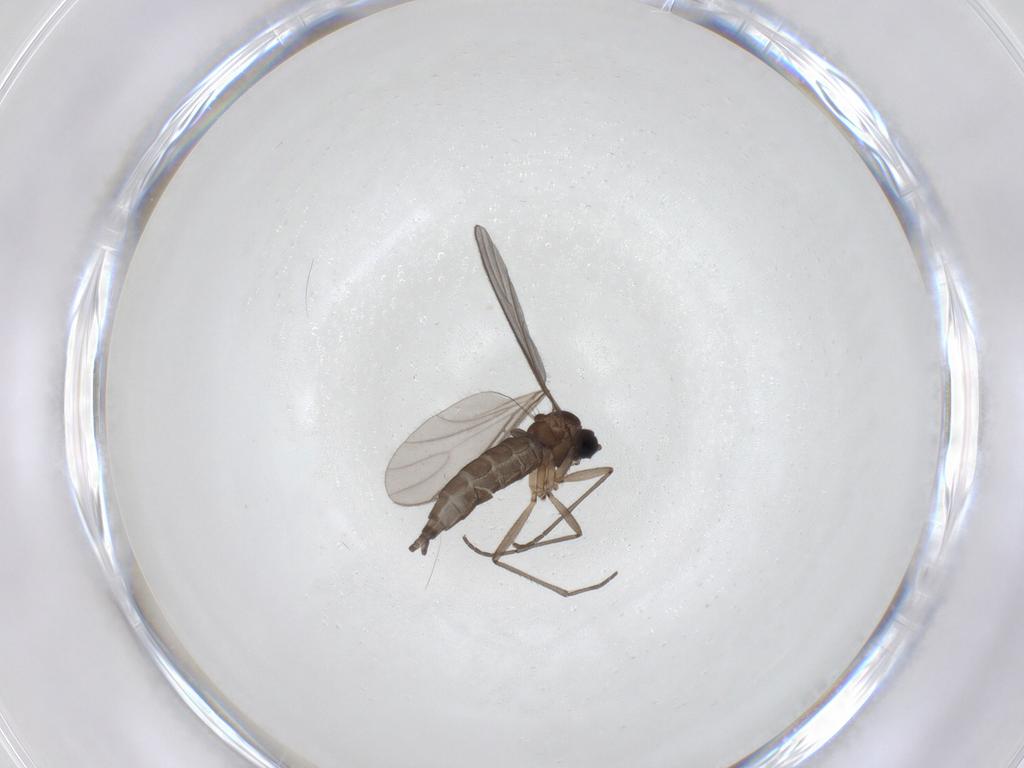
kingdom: Animalia
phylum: Arthropoda
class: Insecta
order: Diptera
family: Sciaridae
